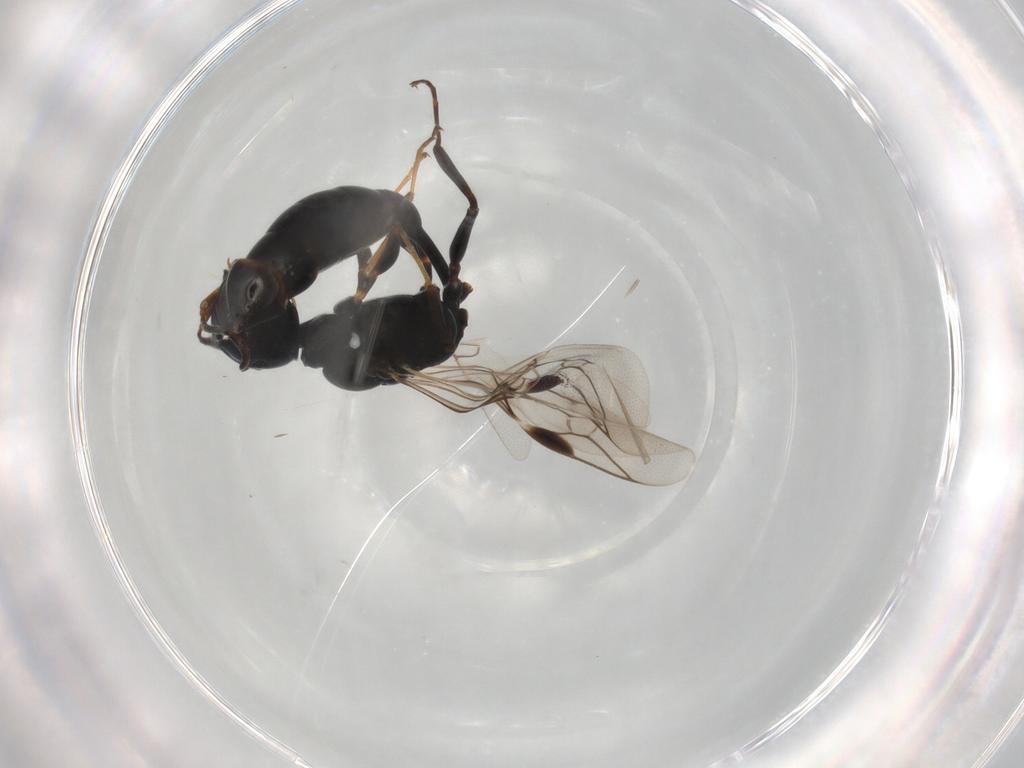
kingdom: Animalia
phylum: Arthropoda
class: Insecta
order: Hymenoptera
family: Crabronidae
